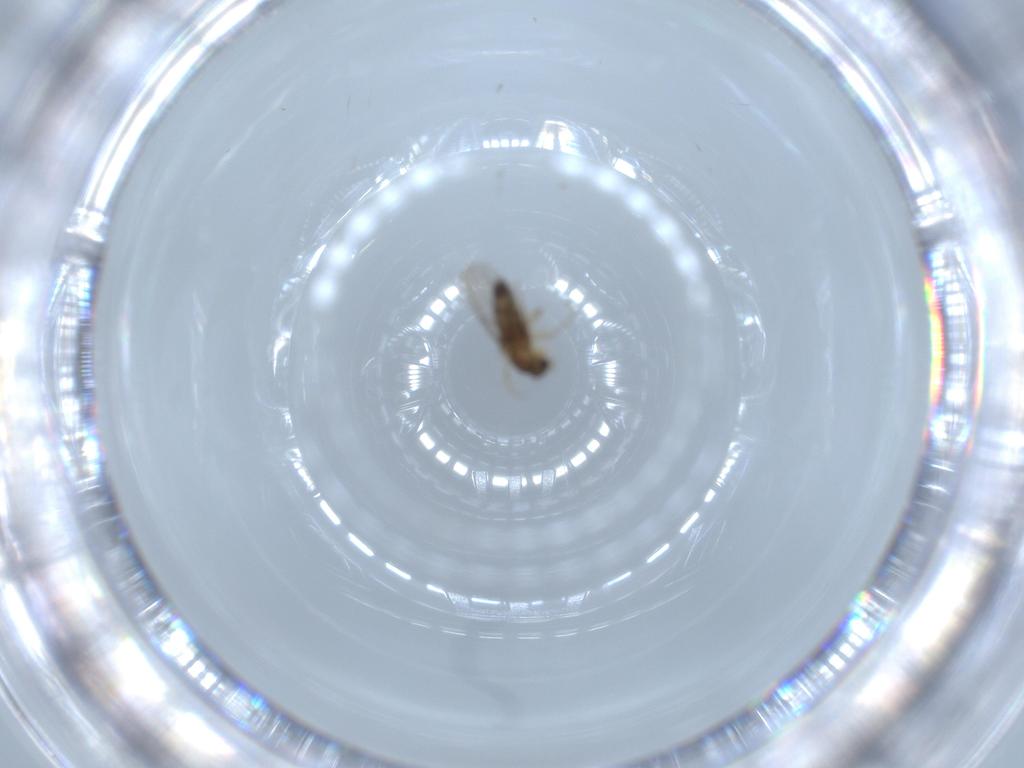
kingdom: Animalia
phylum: Arthropoda
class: Insecta
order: Diptera
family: Phoridae
